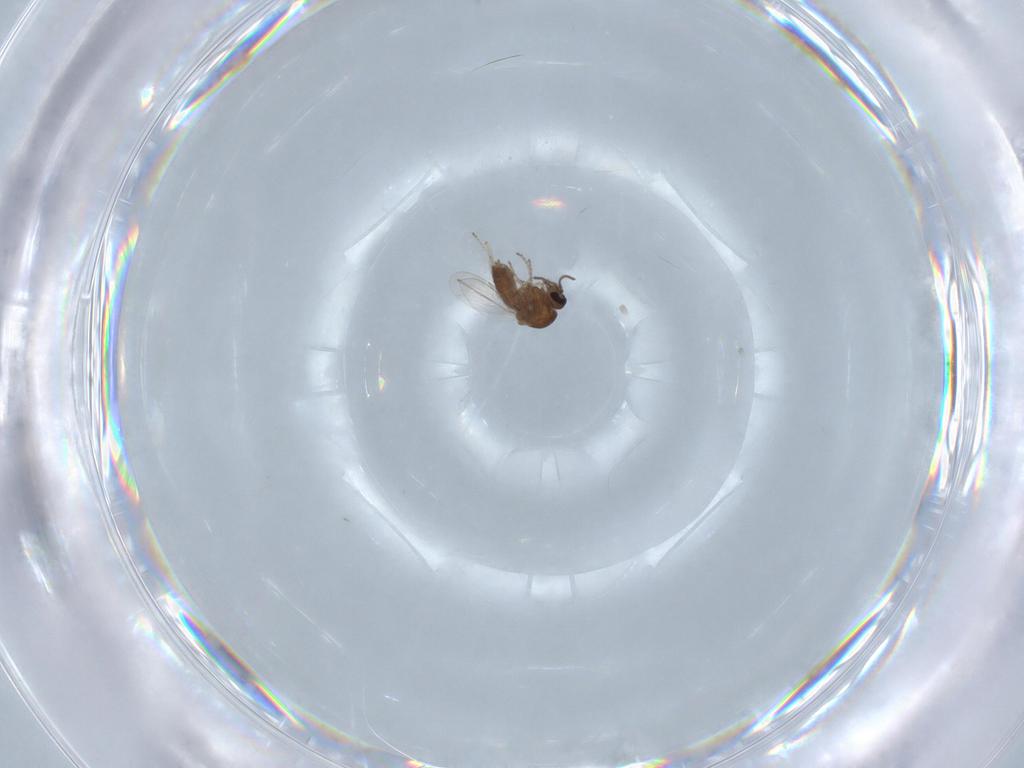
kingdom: Animalia
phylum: Arthropoda
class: Insecta
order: Diptera
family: Ceratopogonidae
